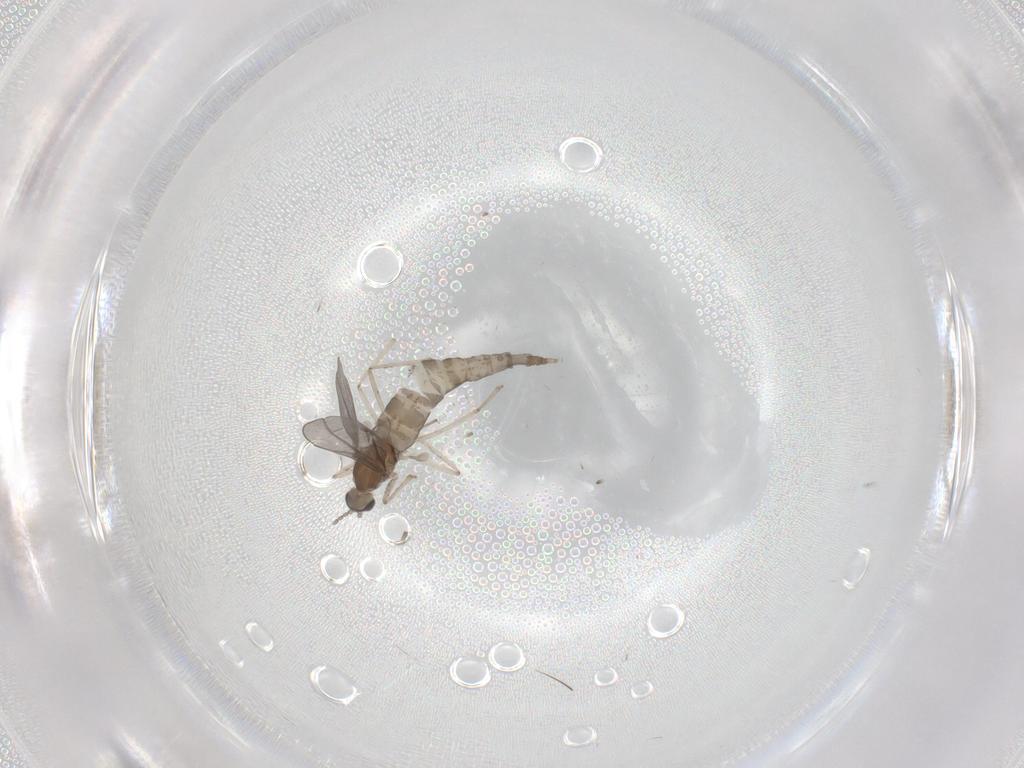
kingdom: Animalia
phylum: Arthropoda
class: Insecta
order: Diptera
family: Cecidomyiidae
